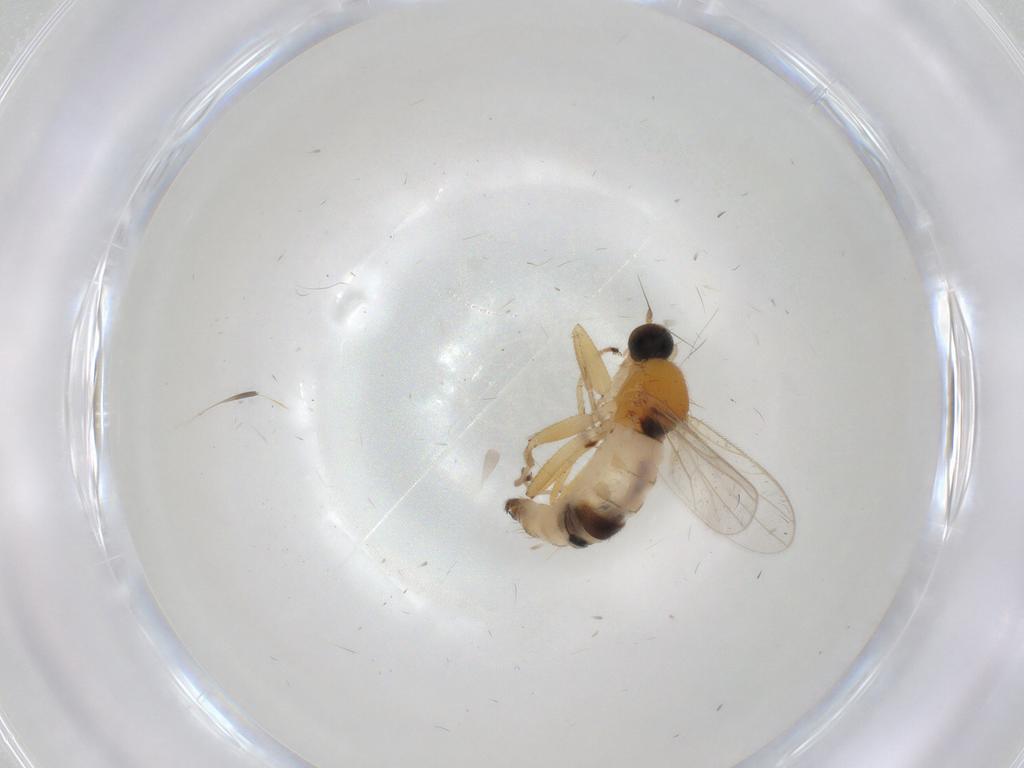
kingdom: Animalia
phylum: Arthropoda
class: Insecta
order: Diptera
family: Hybotidae
